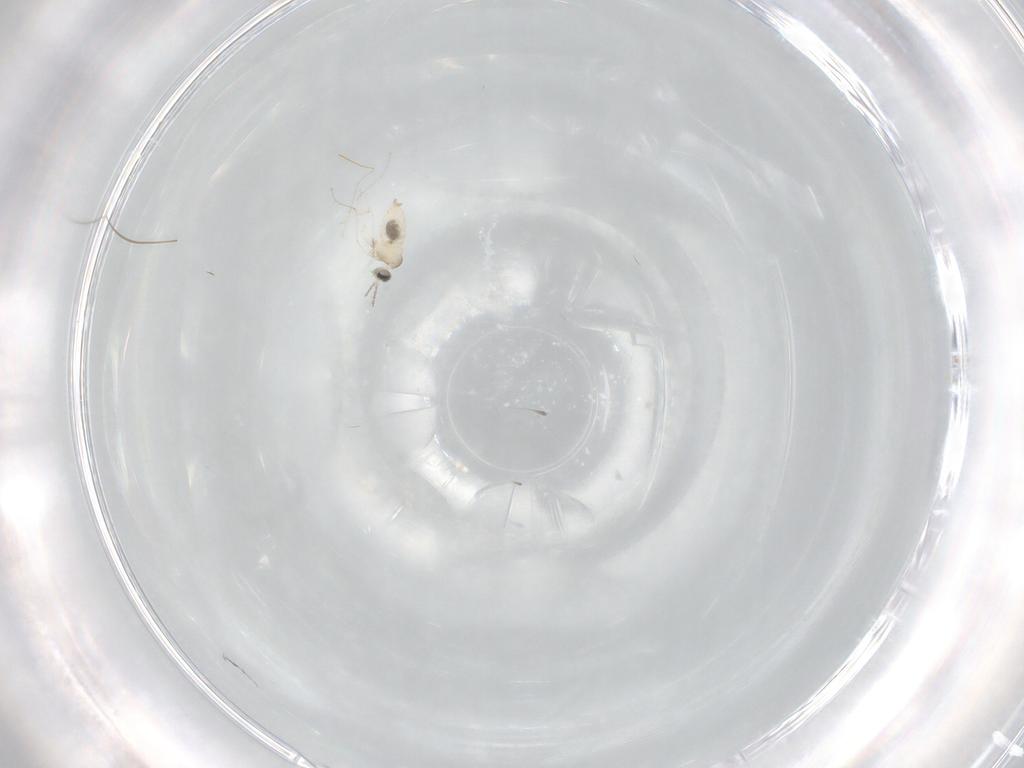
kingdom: Animalia
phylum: Arthropoda
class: Insecta
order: Diptera
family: Cecidomyiidae
